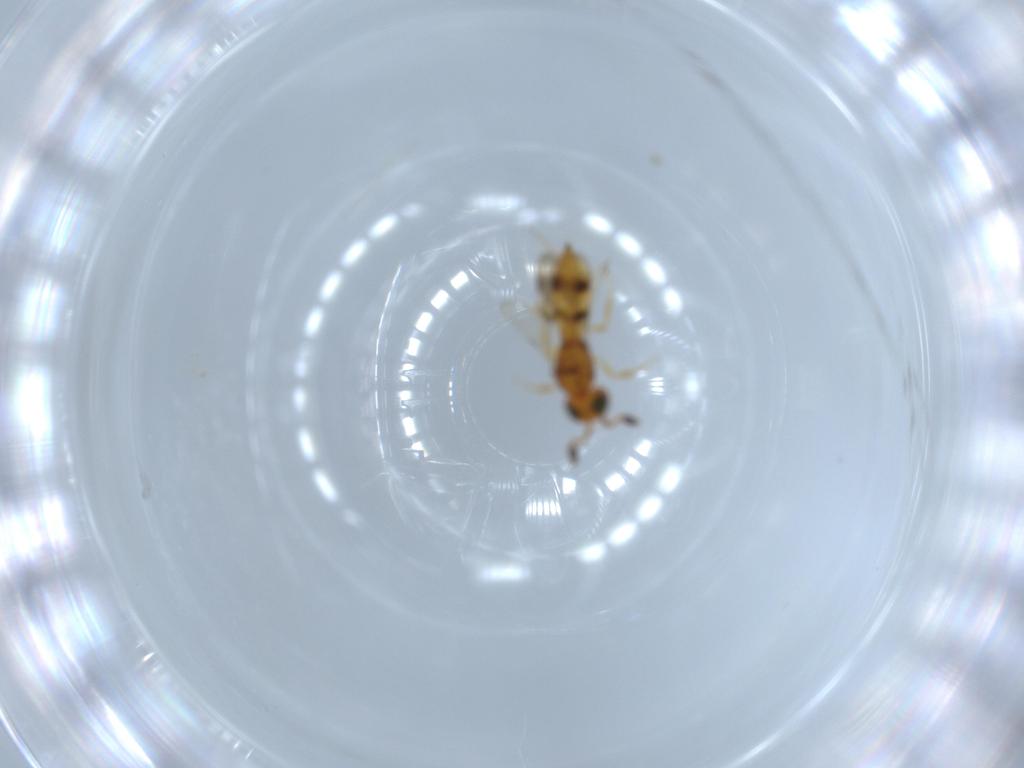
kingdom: Animalia
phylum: Arthropoda
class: Insecta
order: Hymenoptera
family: Scelionidae
